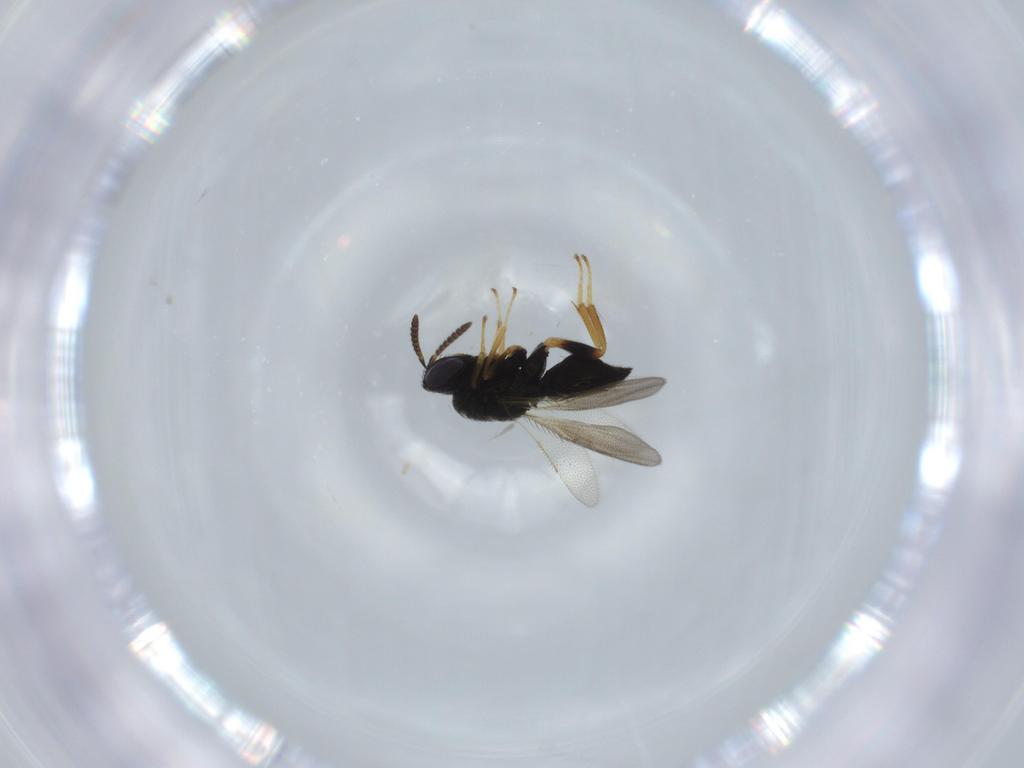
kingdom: Animalia
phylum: Arthropoda
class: Insecta
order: Hymenoptera
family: Pteromalidae
